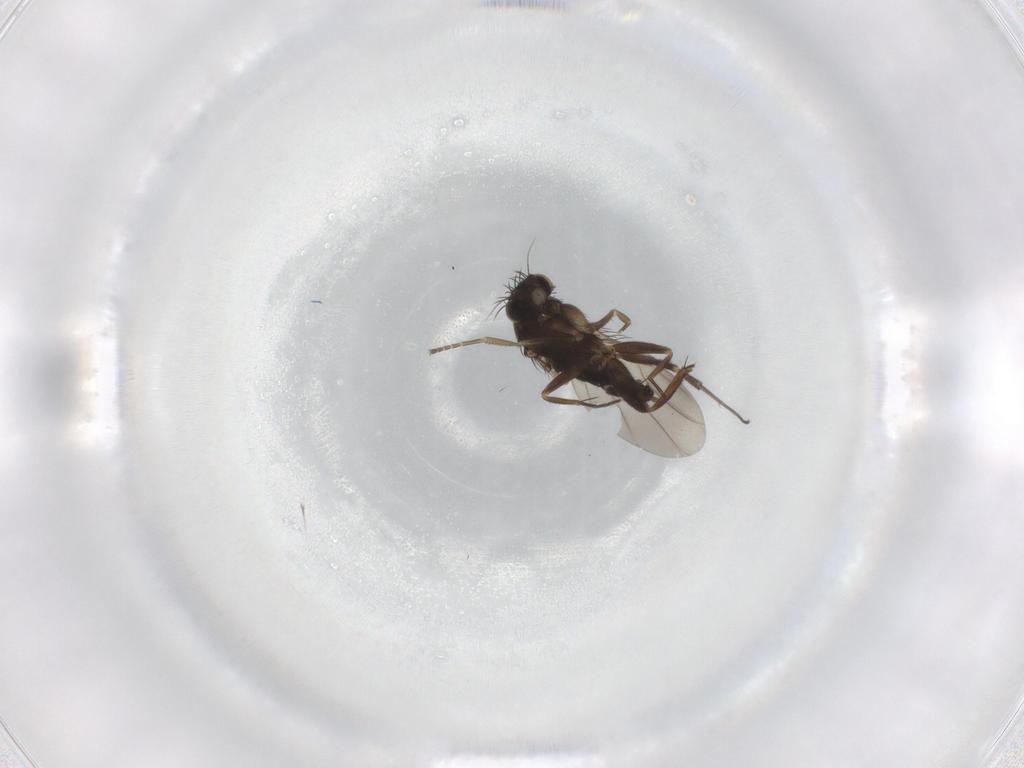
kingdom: Animalia
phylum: Arthropoda
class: Insecta
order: Diptera
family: Phoridae
